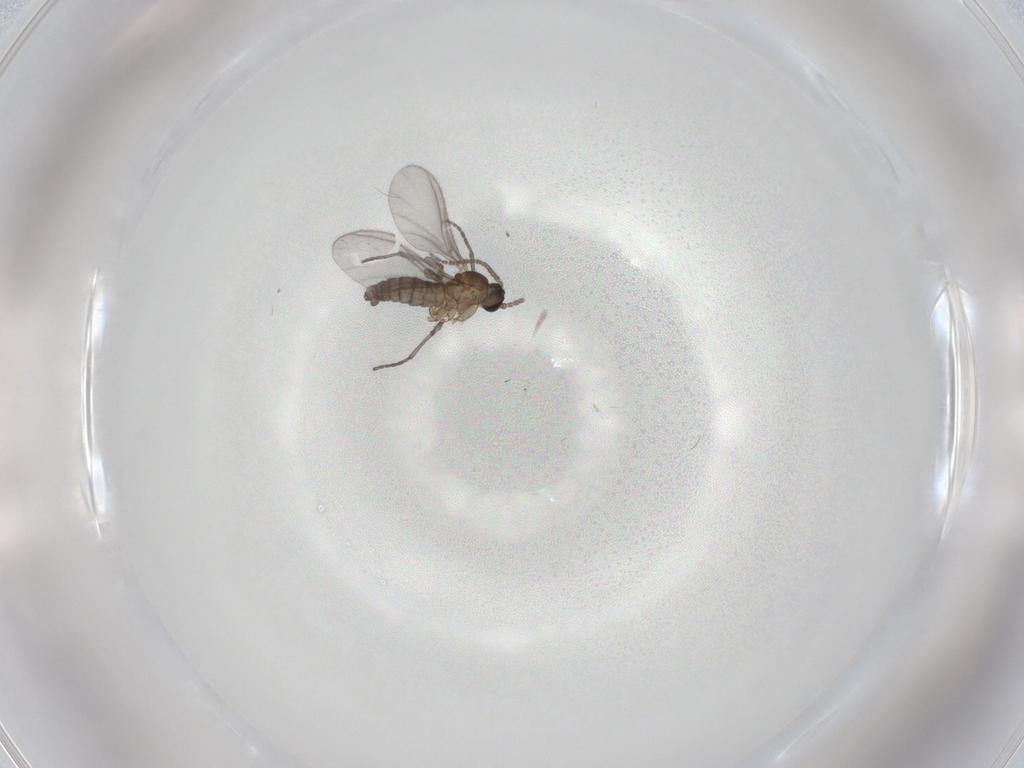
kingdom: Animalia
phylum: Arthropoda
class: Insecta
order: Diptera
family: Sciaridae
